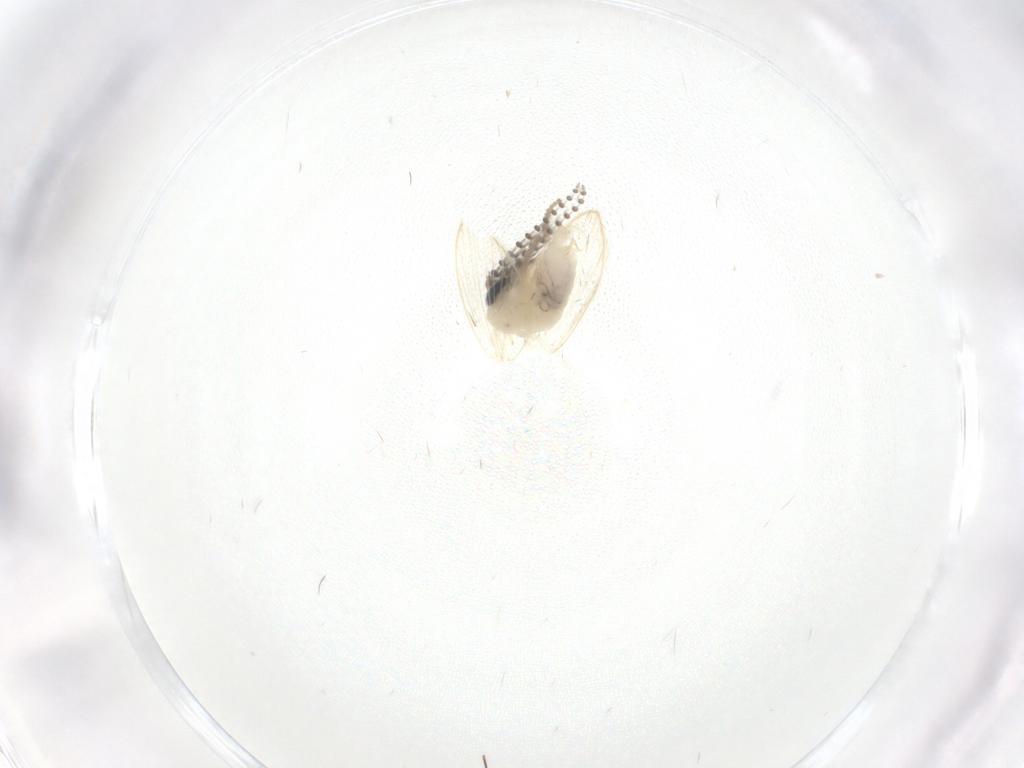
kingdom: Animalia
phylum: Arthropoda
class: Insecta
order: Diptera
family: Psychodidae
